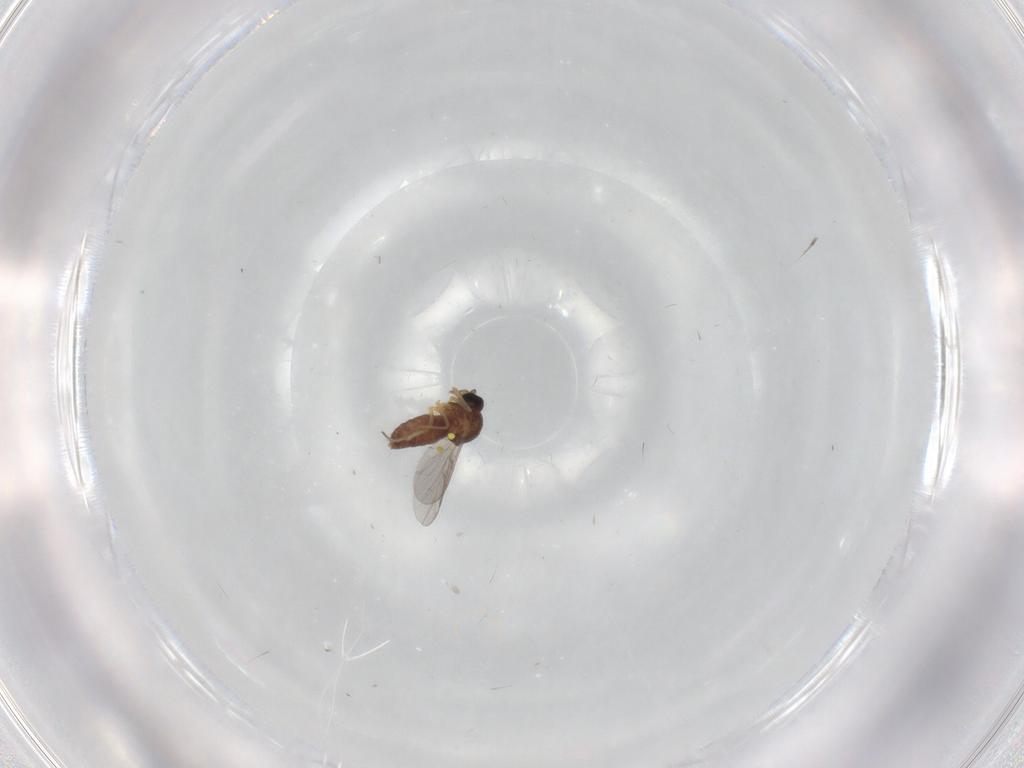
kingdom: Animalia
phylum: Arthropoda
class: Insecta
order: Diptera
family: Ceratopogonidae
